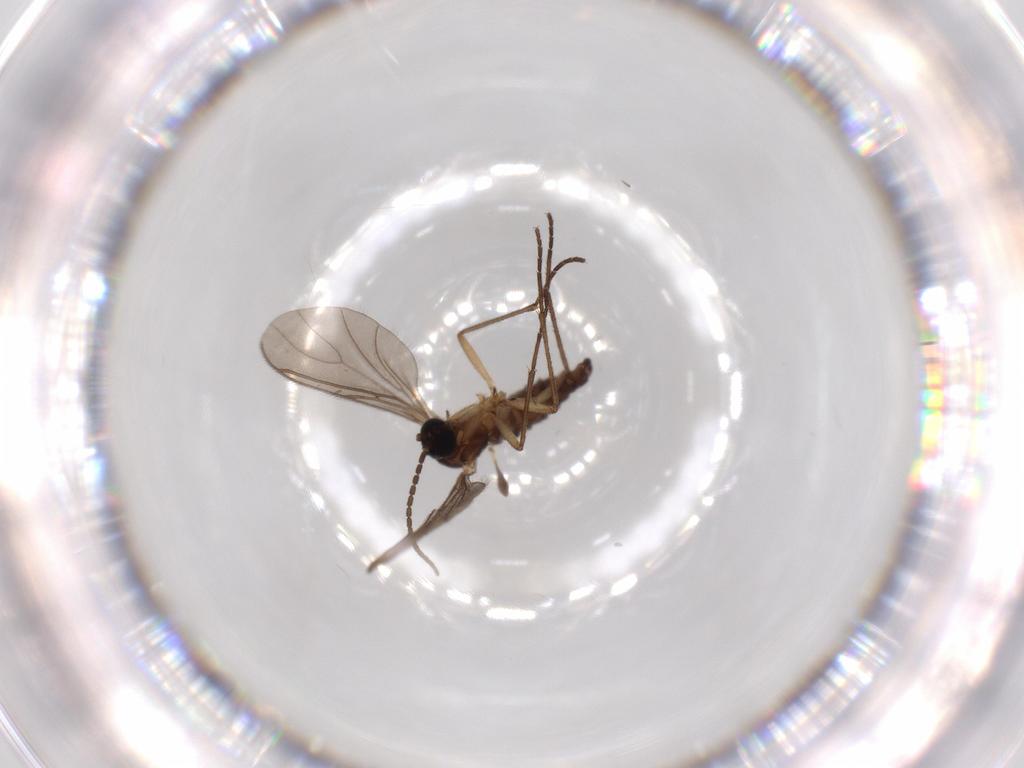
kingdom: Animalia
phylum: Arthropoda
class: Insecta
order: Diptera
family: Sciaridae
